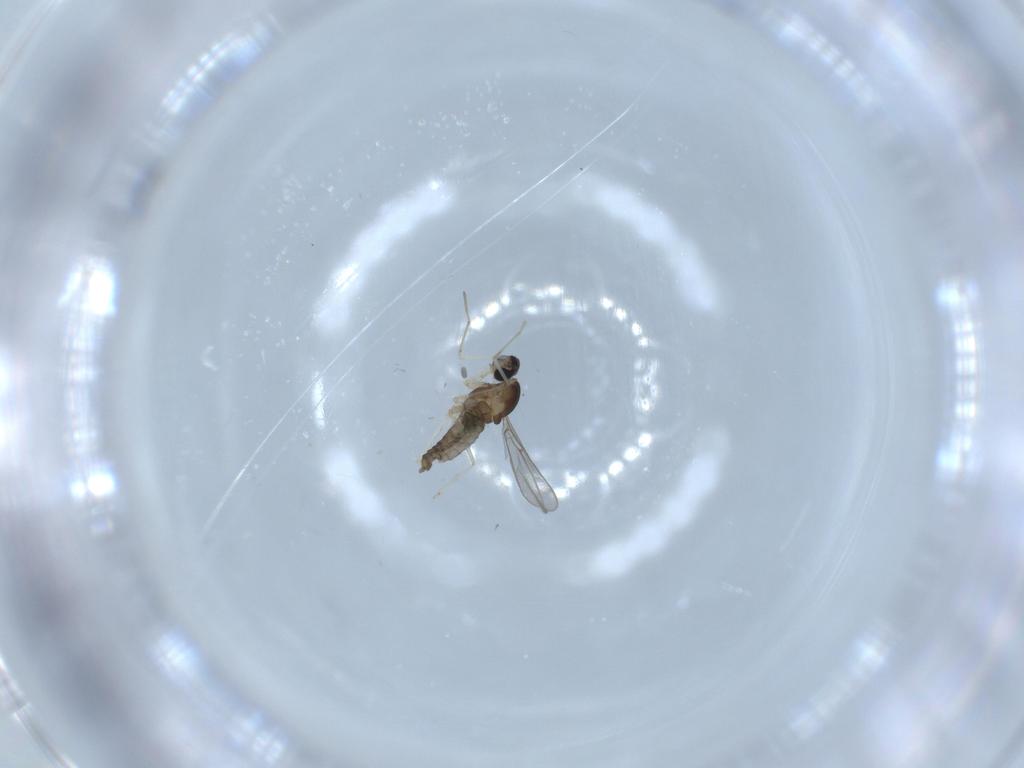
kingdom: Animalia
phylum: Arthropoda
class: Insecta
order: Diptera
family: Cecidomyiidae
